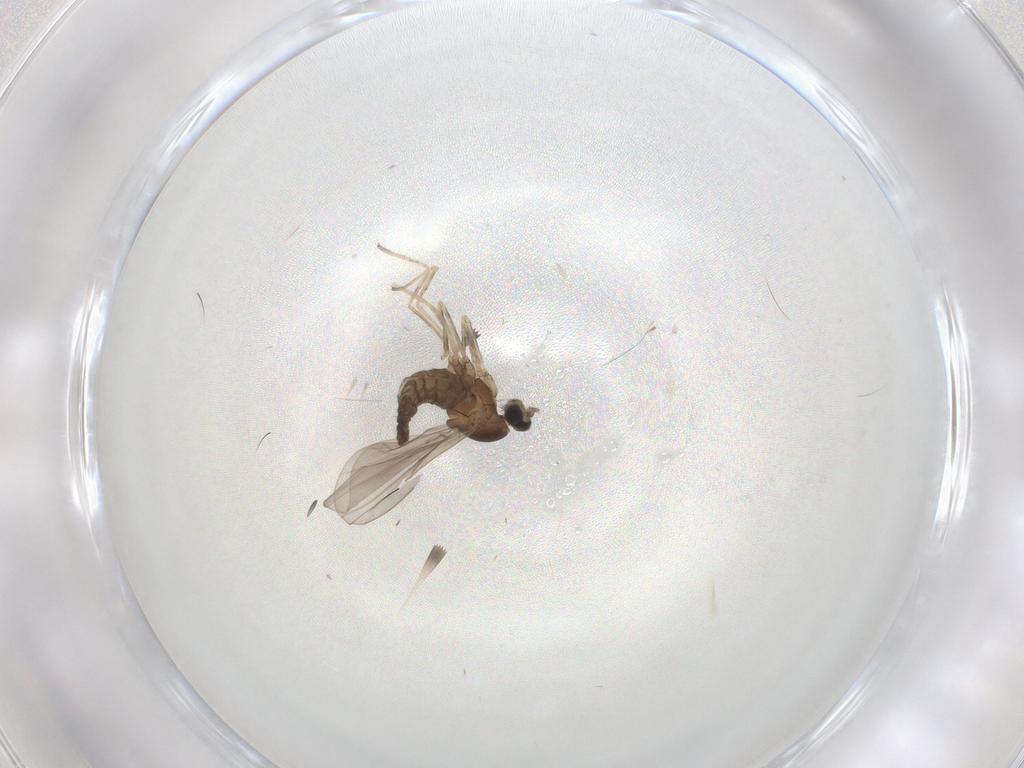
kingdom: Animalia
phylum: Arthropoda
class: Insecta
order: Diptera
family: Cecidomyiidae
